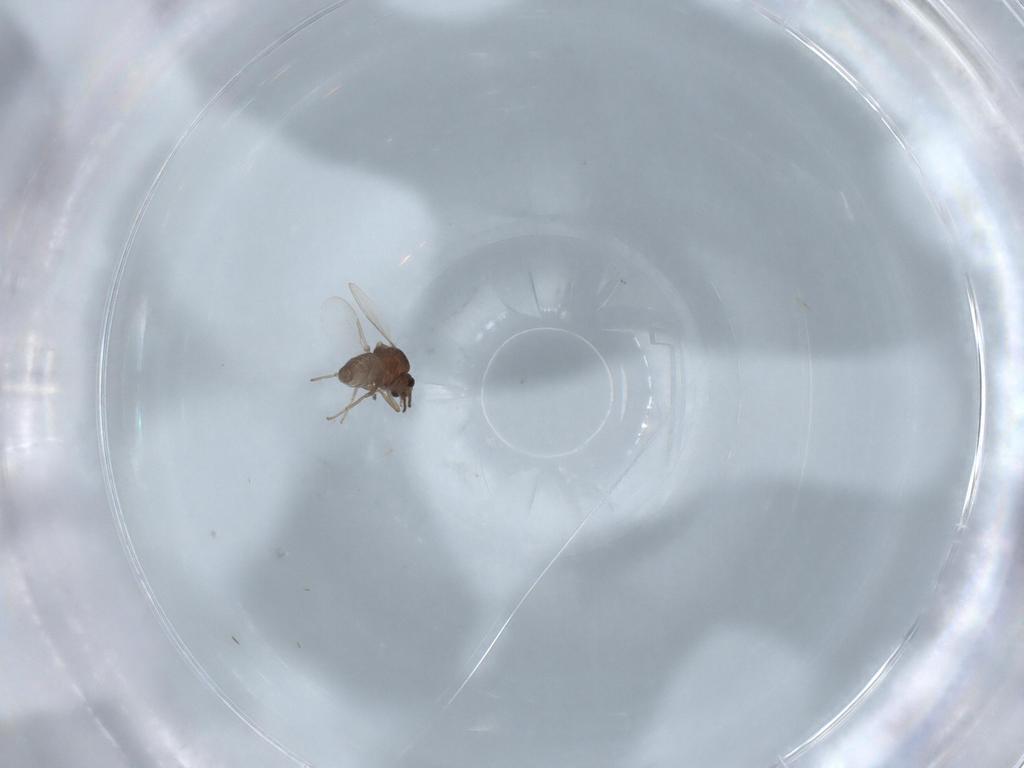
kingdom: Animalia
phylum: Arthropoda
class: Insecta
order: Diptera
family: Ceratopogonidae
